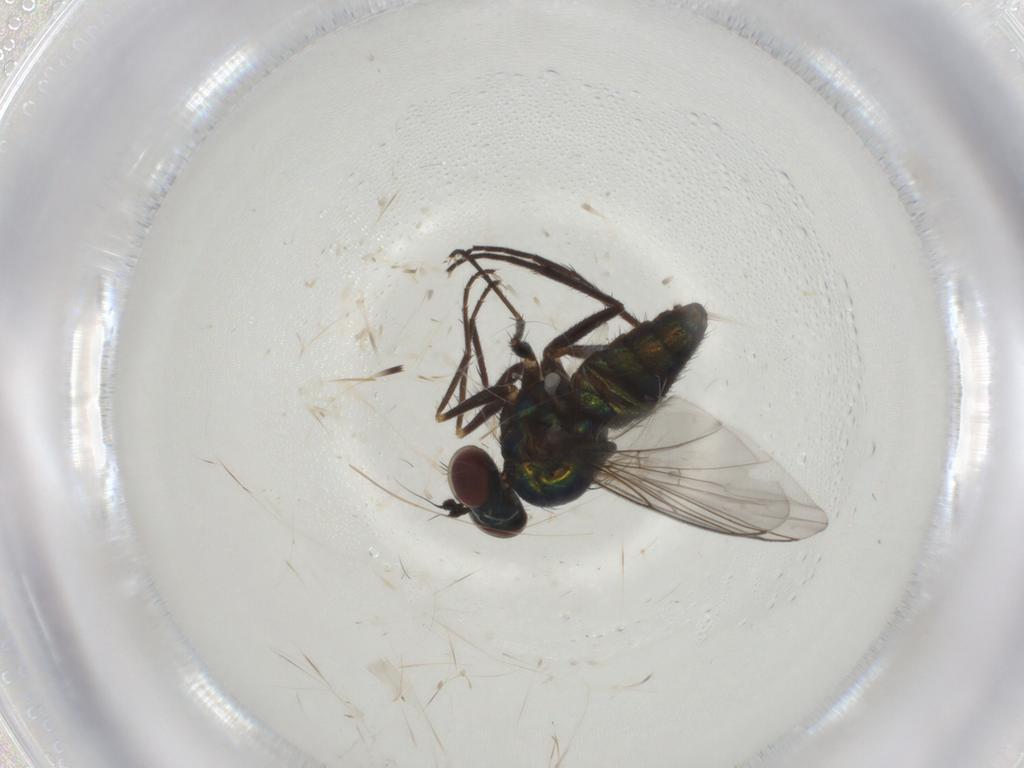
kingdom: Animalia
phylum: Arthropoda
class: Insecta
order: Diptera
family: Dolichopodidae
